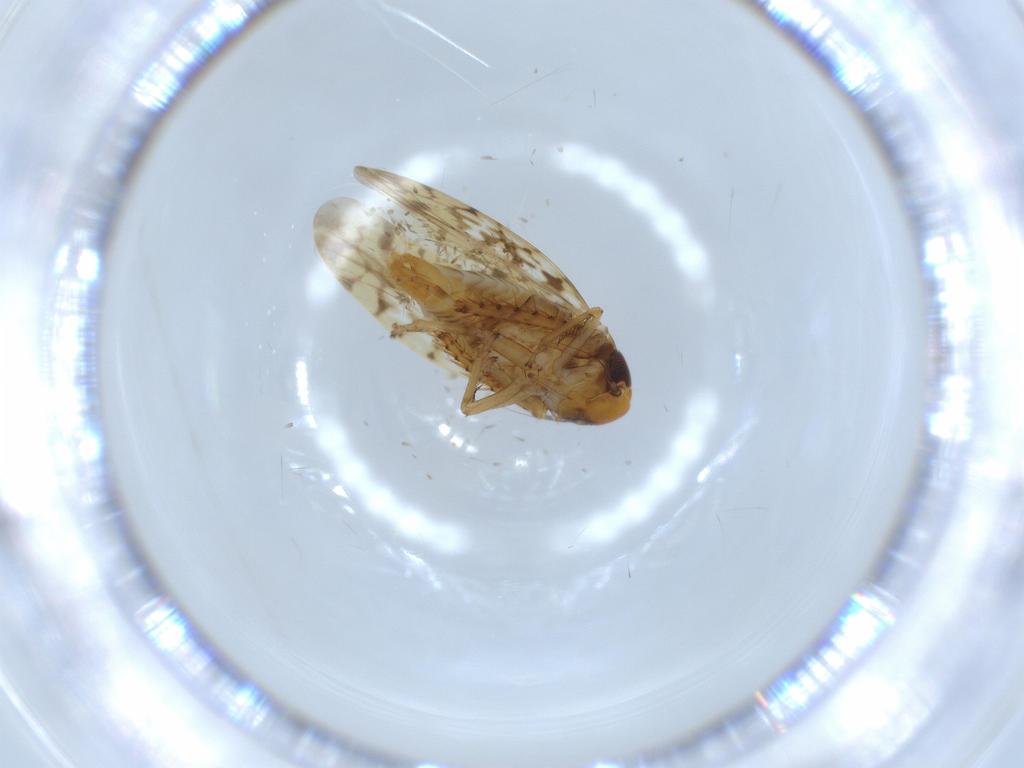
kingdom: Animalia
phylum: Arthropoda
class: Insecta
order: Hemiptera
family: Cicadellidae
